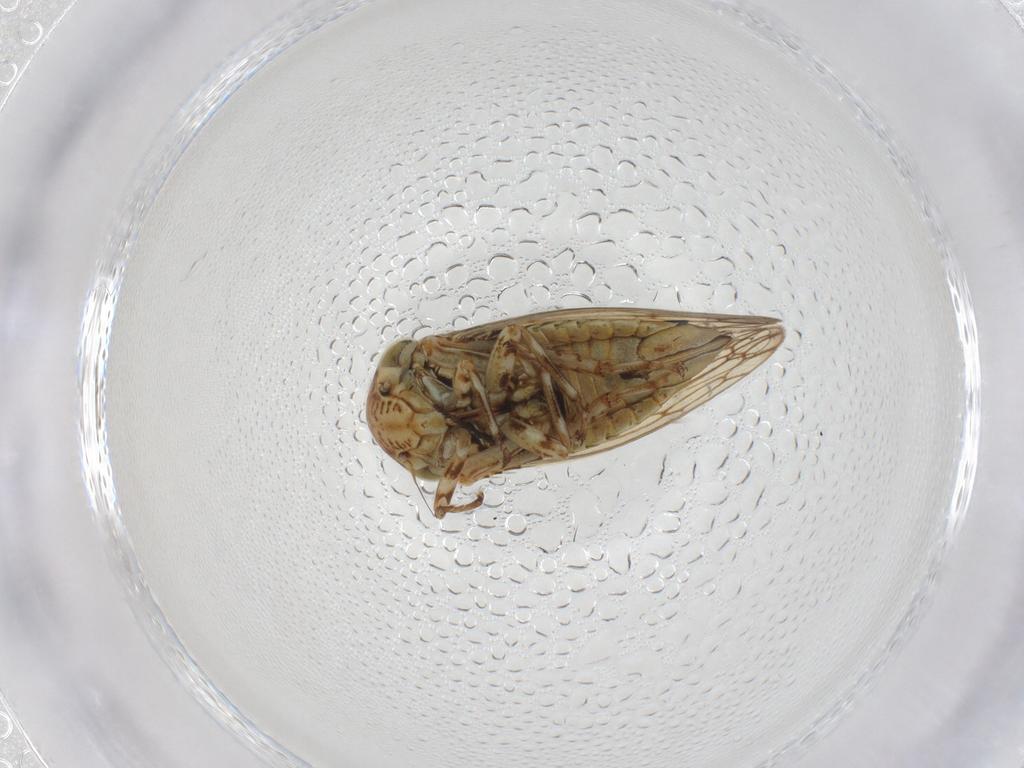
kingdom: Animalia
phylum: Arthropoda
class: Insecta
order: Hemiptera
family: Cicadellidae
